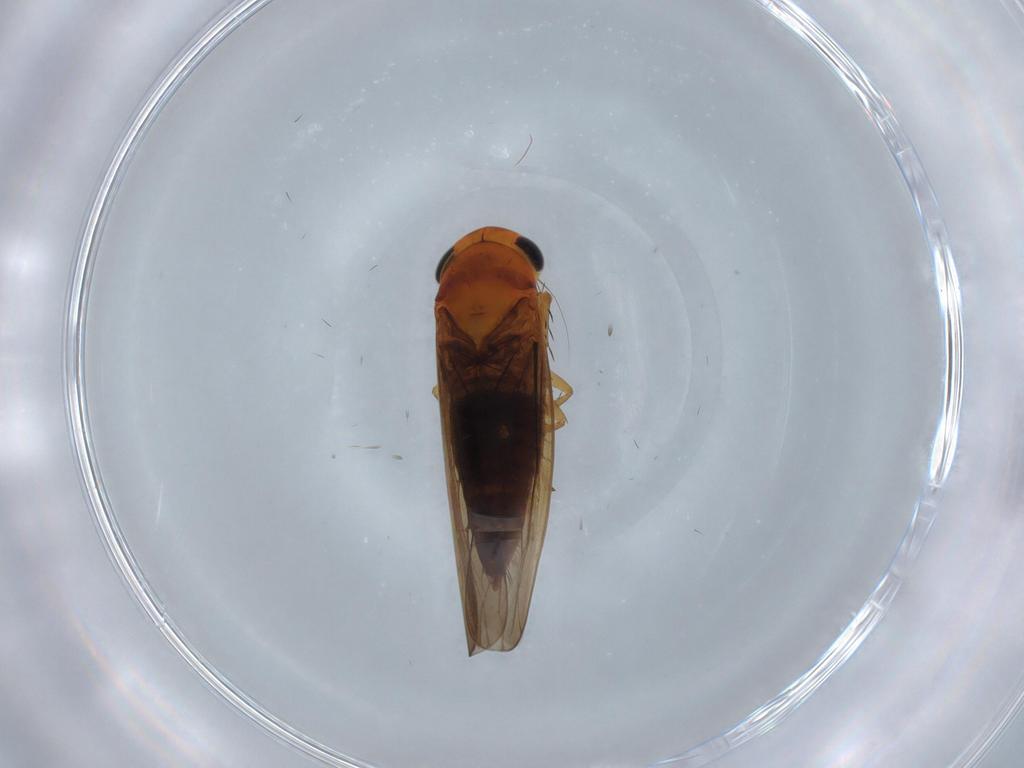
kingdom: Animalia
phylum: Arthropoda
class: Insecta
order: Hemiptera
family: Cicadellidae
